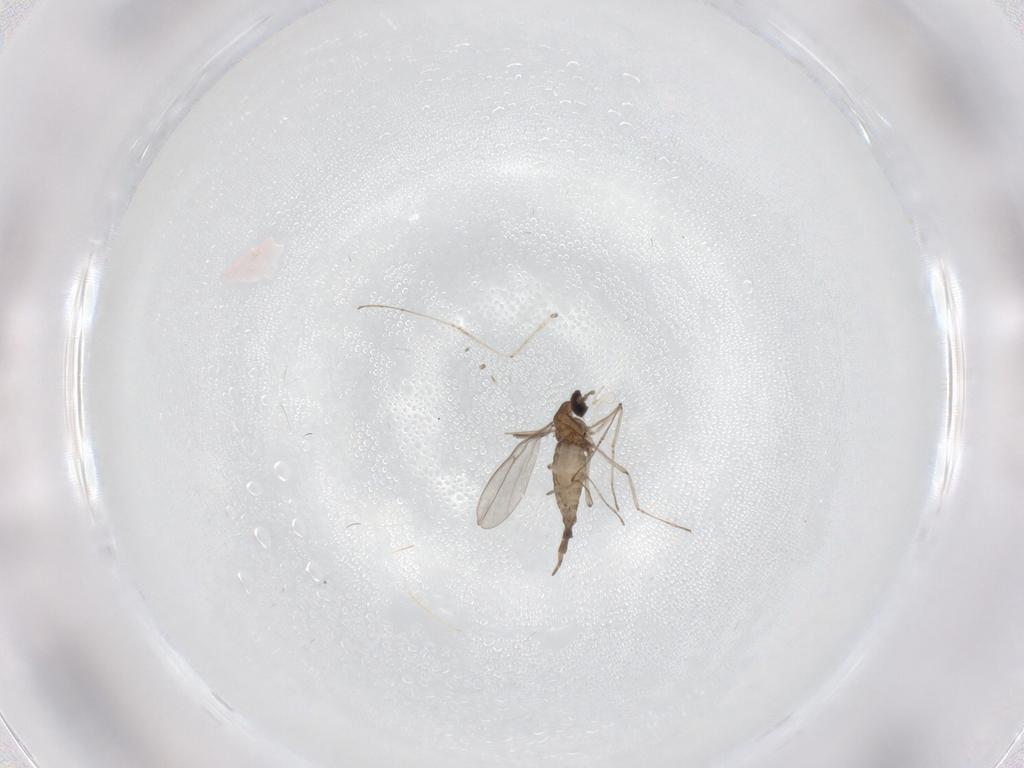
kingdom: Animalia
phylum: Arthropoda
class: Insecta
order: Diptera
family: Cecidomyiidae
